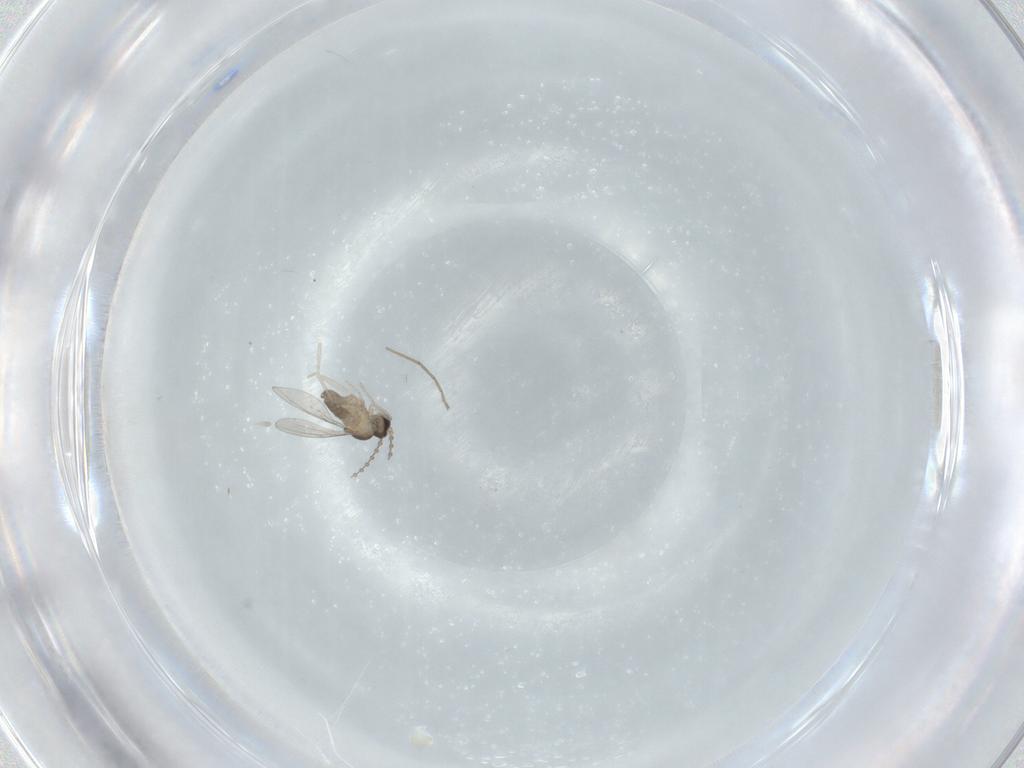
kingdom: Animalia
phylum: Arthropoda
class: Insecta
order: Diptera
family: Cecidomyiidae
